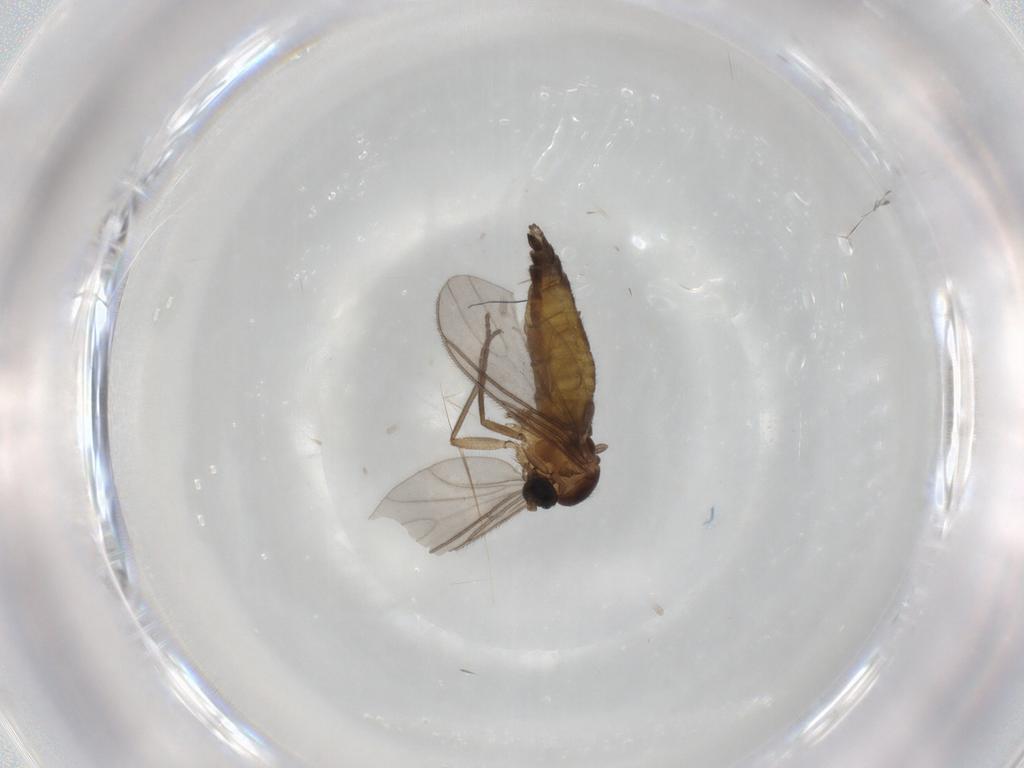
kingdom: Animalia
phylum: Arthropoda
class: Insecta
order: Diptera
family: Sciaridae
